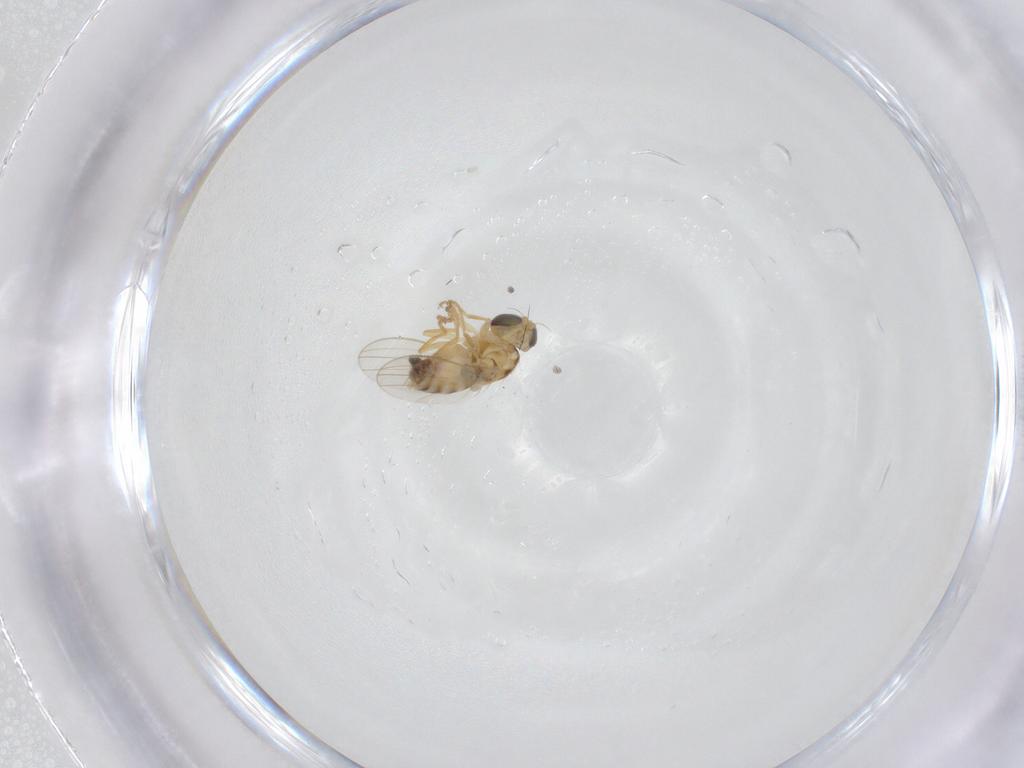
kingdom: Animalia
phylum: Arthropoda
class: Insecta
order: Diptera
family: Chyromyidae
